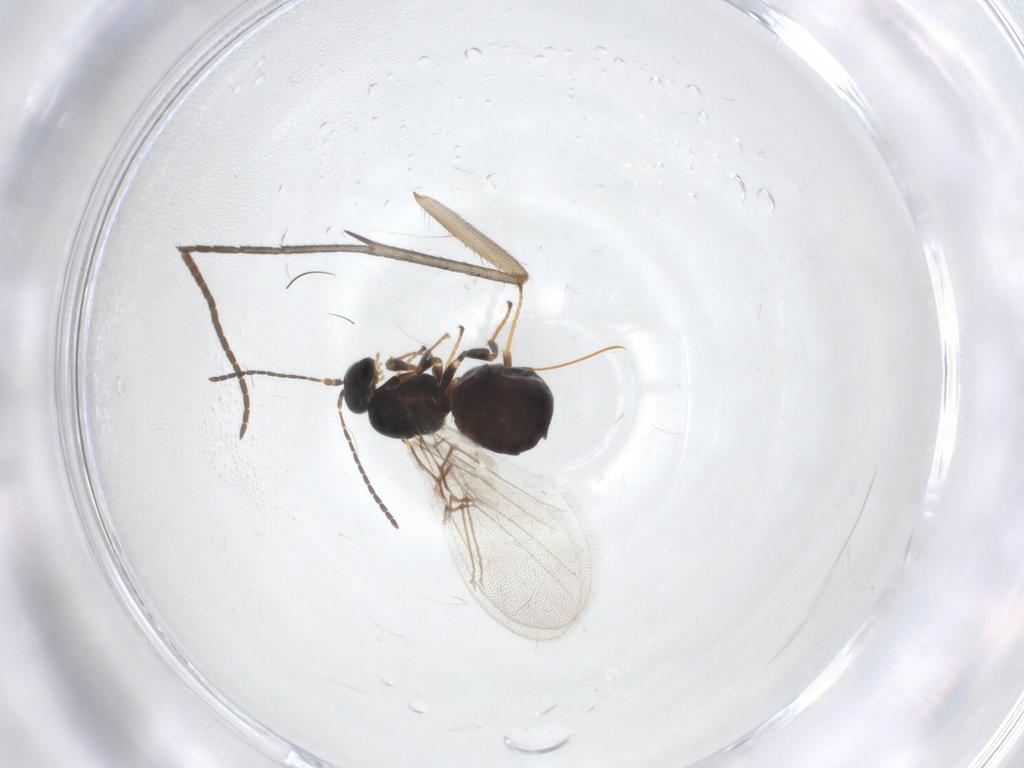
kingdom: Animalia
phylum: Arthropoda
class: Insecta
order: Hymenoptera
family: Cynipidae
